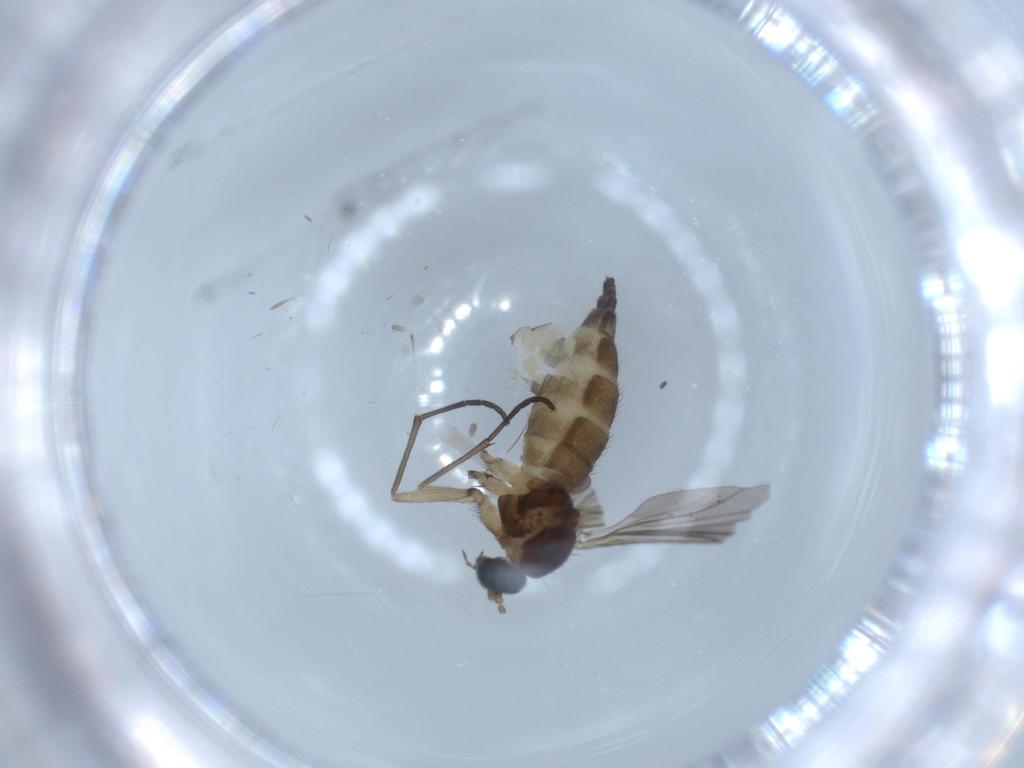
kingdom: Animalia
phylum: Arthropoda
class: Insecta
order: Diptera
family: Sciaridae
